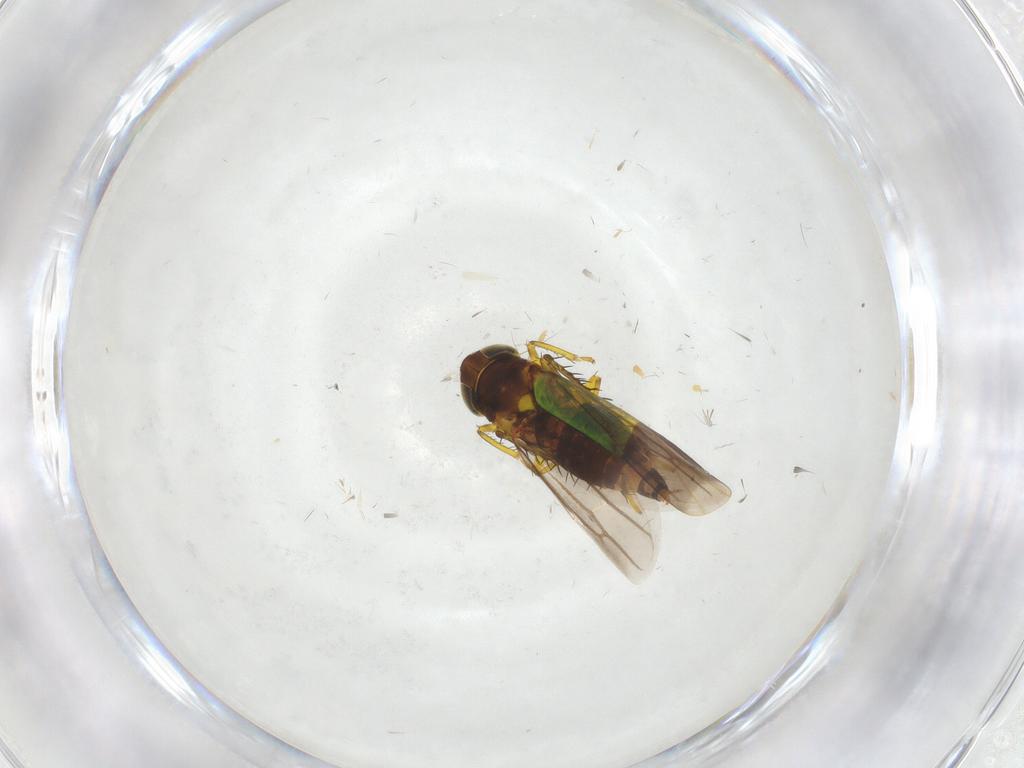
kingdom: Animalia
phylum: Arthropoda
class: Insecta
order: Hemiptera
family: Cicadellidae
